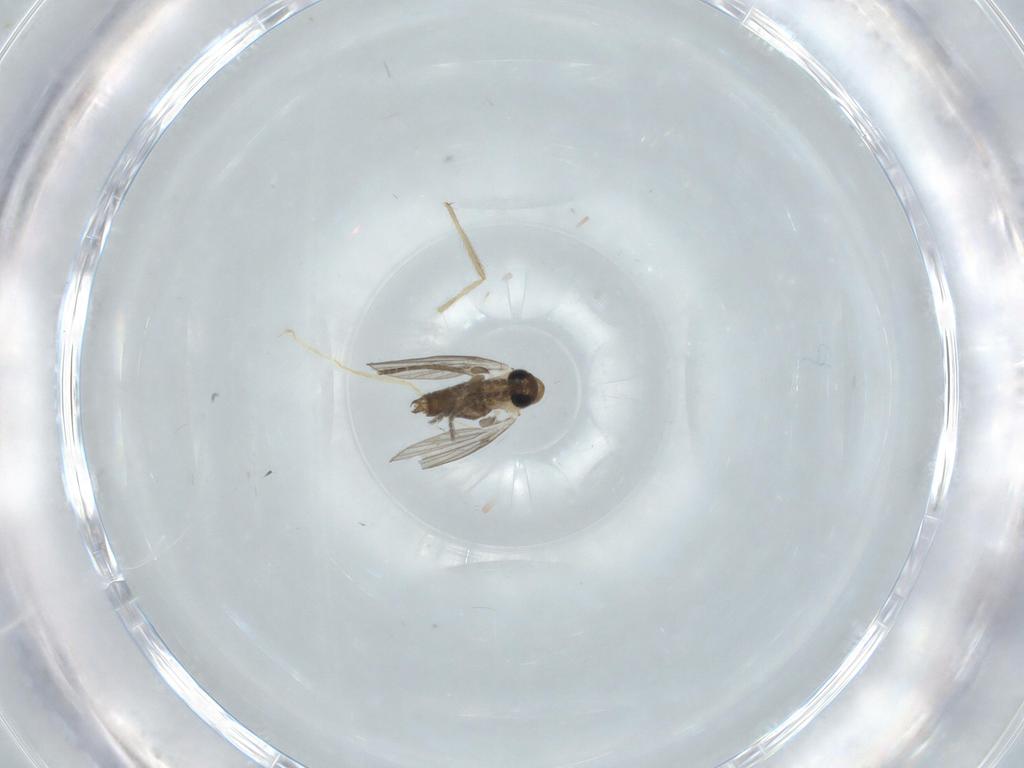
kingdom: Animalia
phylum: Arthropoda
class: Insecta
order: Diptera
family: Chironomidae
